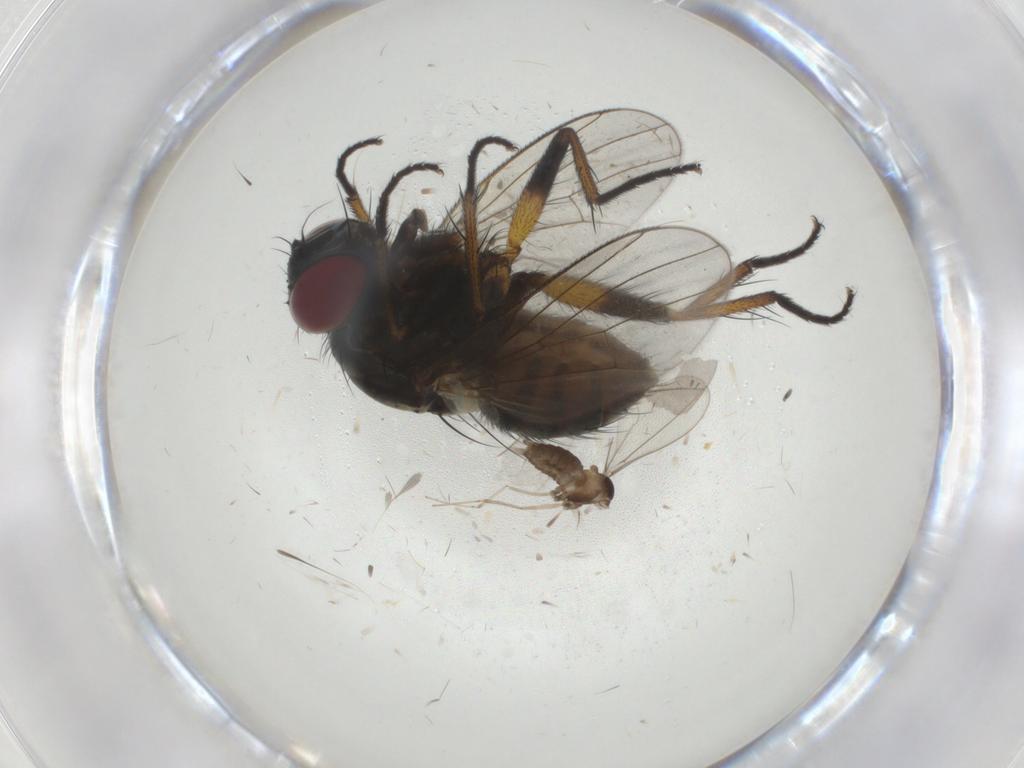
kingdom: Animalia
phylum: Arthropoda
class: Insecta
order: Diptera
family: Muscidae
